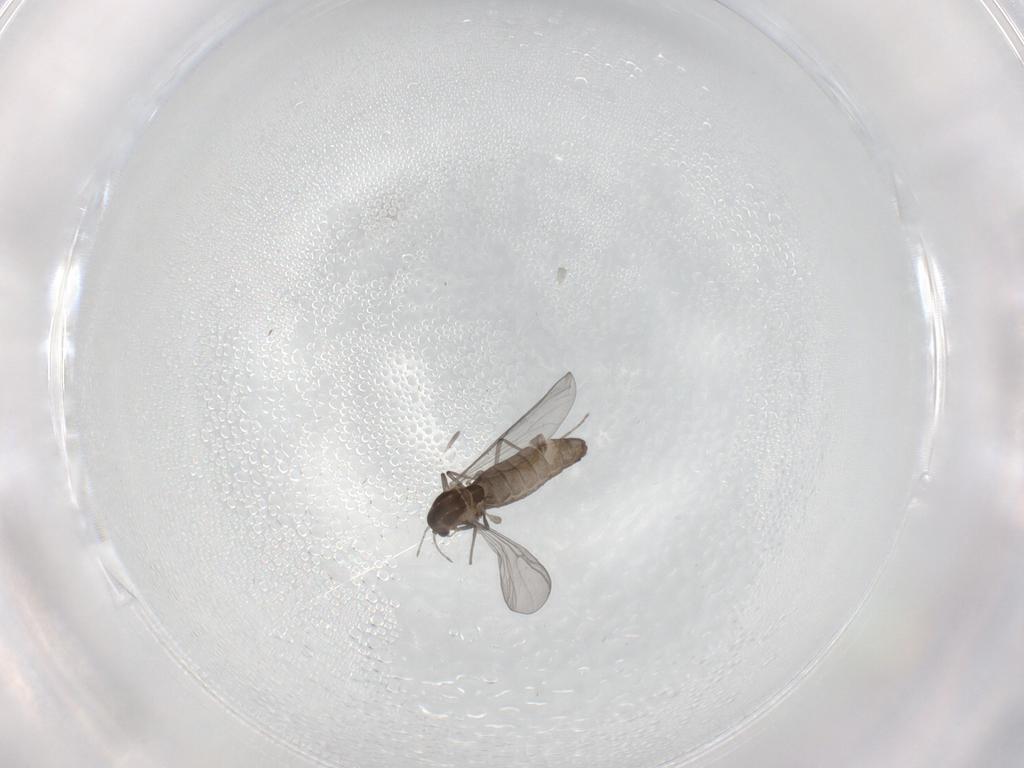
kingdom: Animalia
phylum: Arthropoda
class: Insecta
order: Diptera
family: Chironomidae
